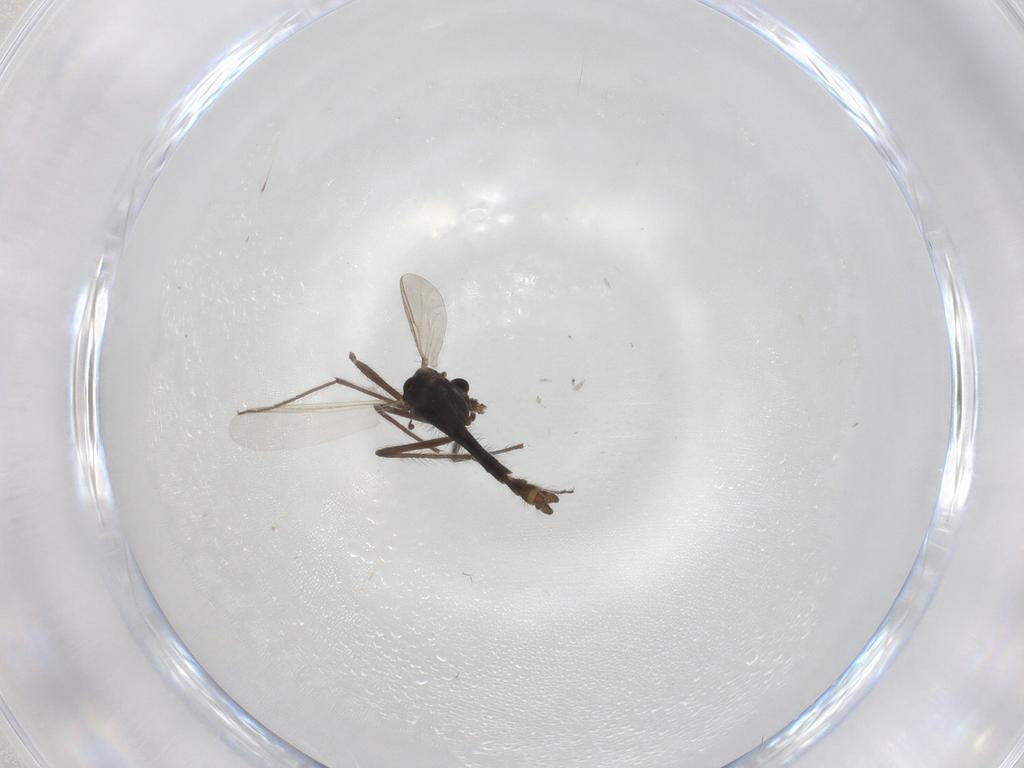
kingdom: Animalia
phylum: Arthropoda
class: Insecta
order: Diptera
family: Chironomidae
